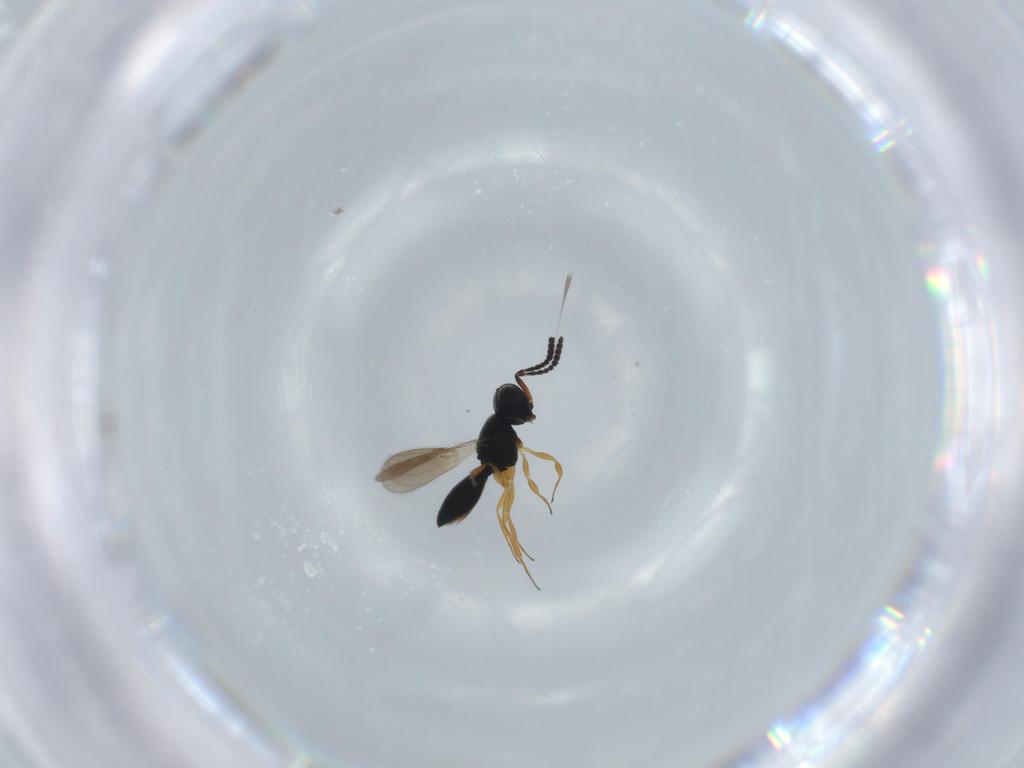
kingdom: Animalia
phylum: Arthropoda
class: Insecta
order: Hymenoptera
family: Scelionidae
